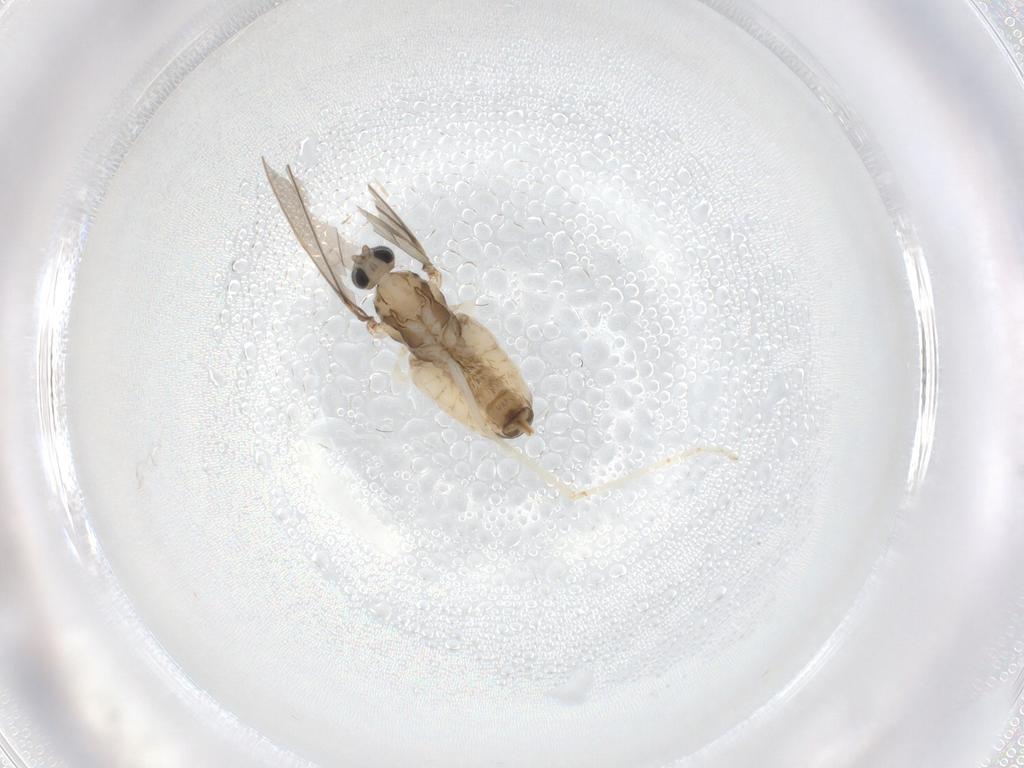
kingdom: Animalia
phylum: Arthropoda
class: Insecta
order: Diptera
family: Cecidomyiidae
